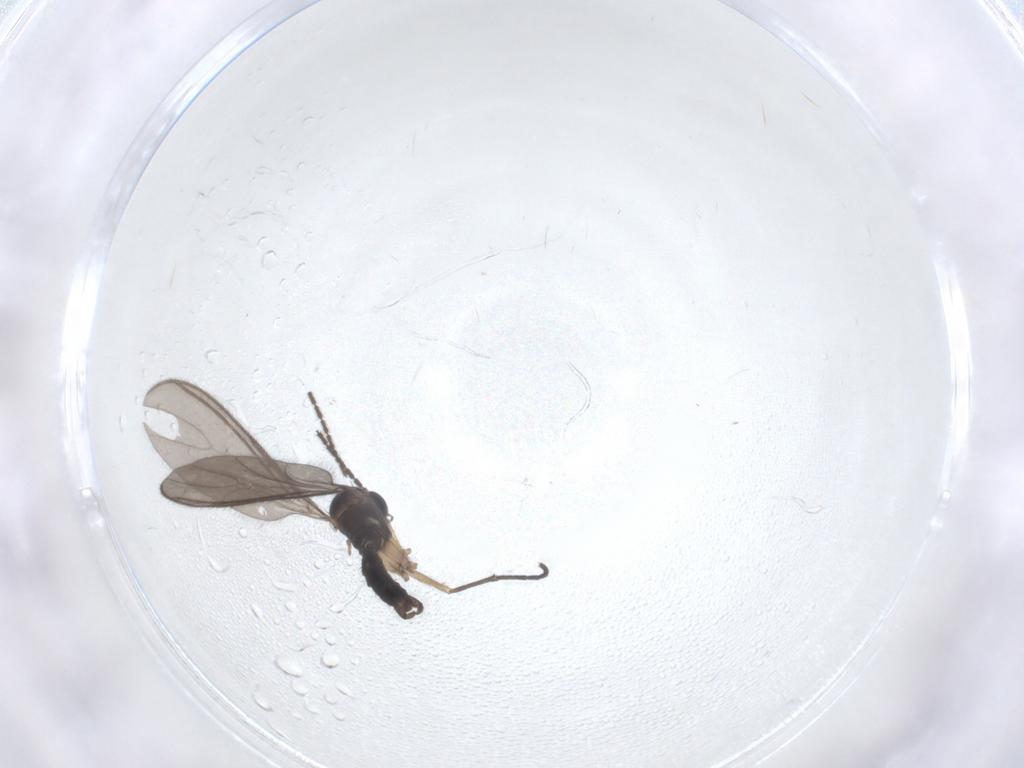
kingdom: Animalia
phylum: Arthropoda
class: Insecta
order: Diptera
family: Sciaridae
